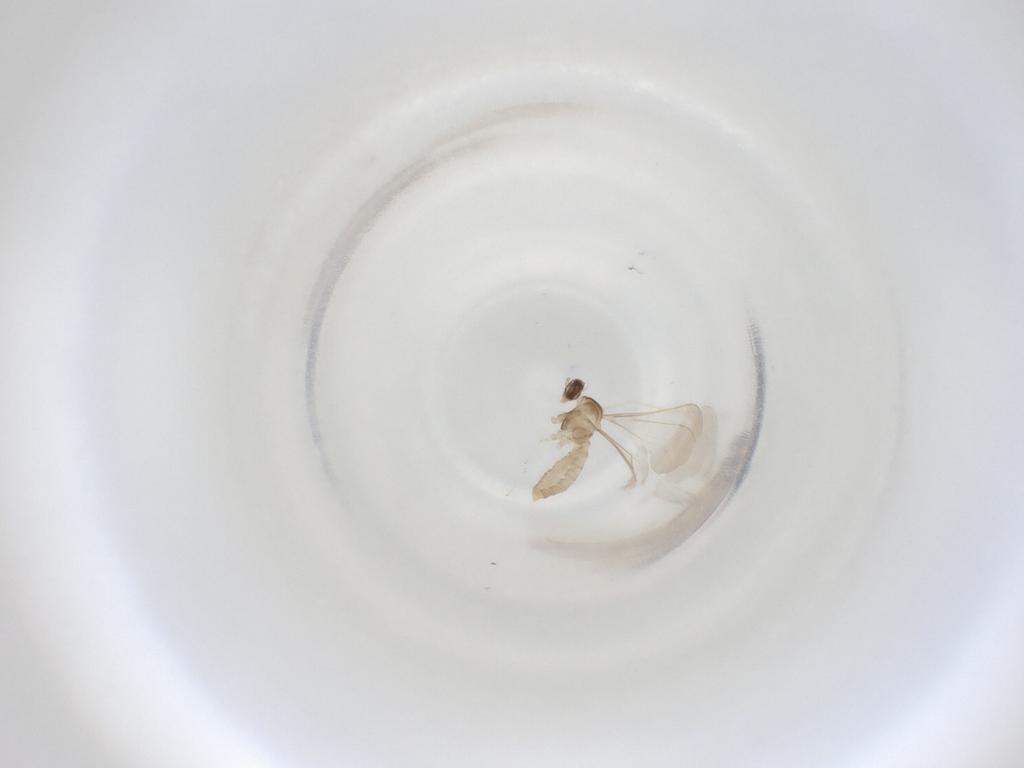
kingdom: Animalia
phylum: Arthropoda
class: Insecta
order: Diptera
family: Cecidomyiidae
